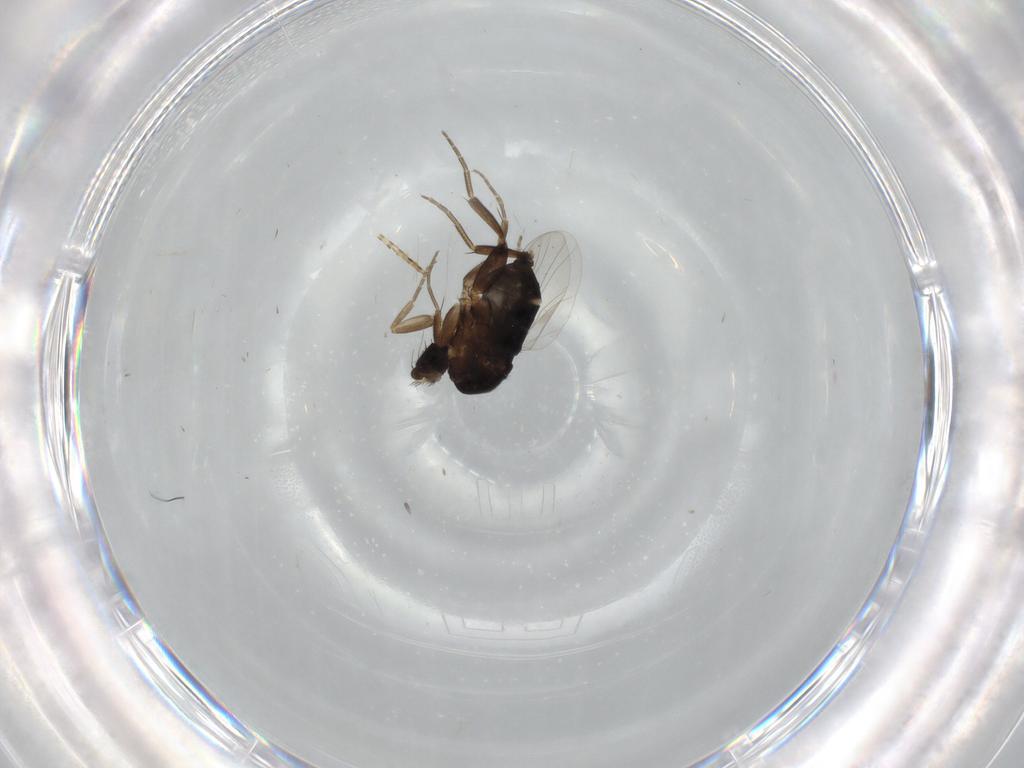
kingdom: Animalia
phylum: Arthropoda
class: Insecta
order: Diptera
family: Phoridae
